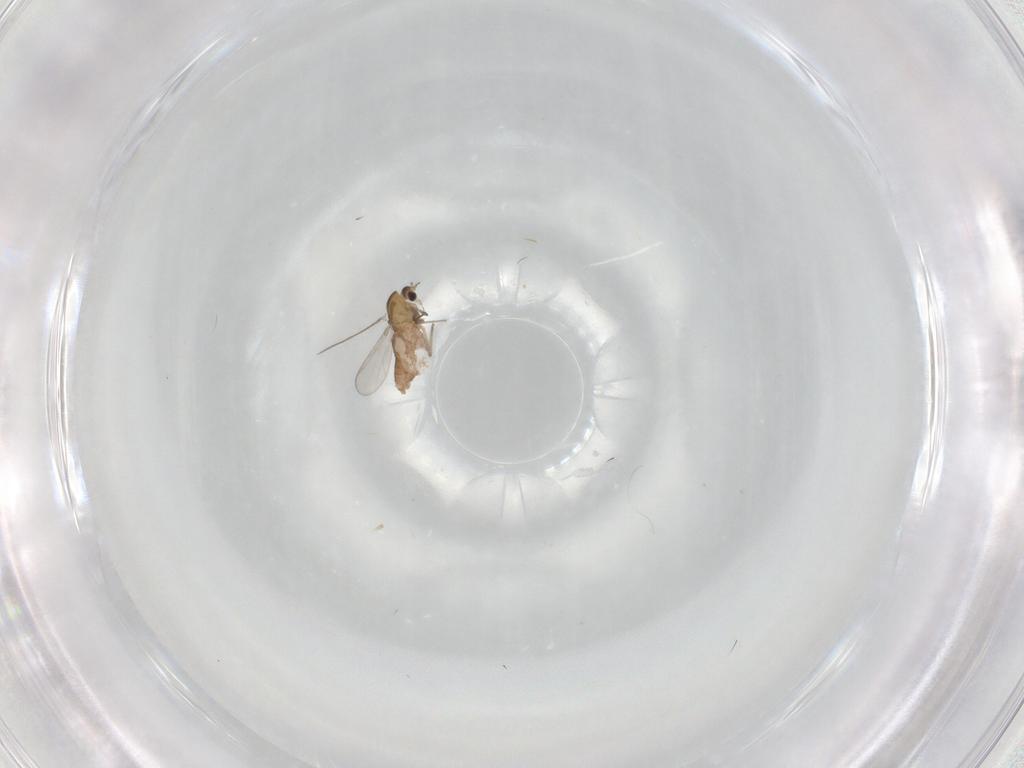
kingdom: Animalia
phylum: Arthropoda
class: Insecta
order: Diptera
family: Chironomidae
